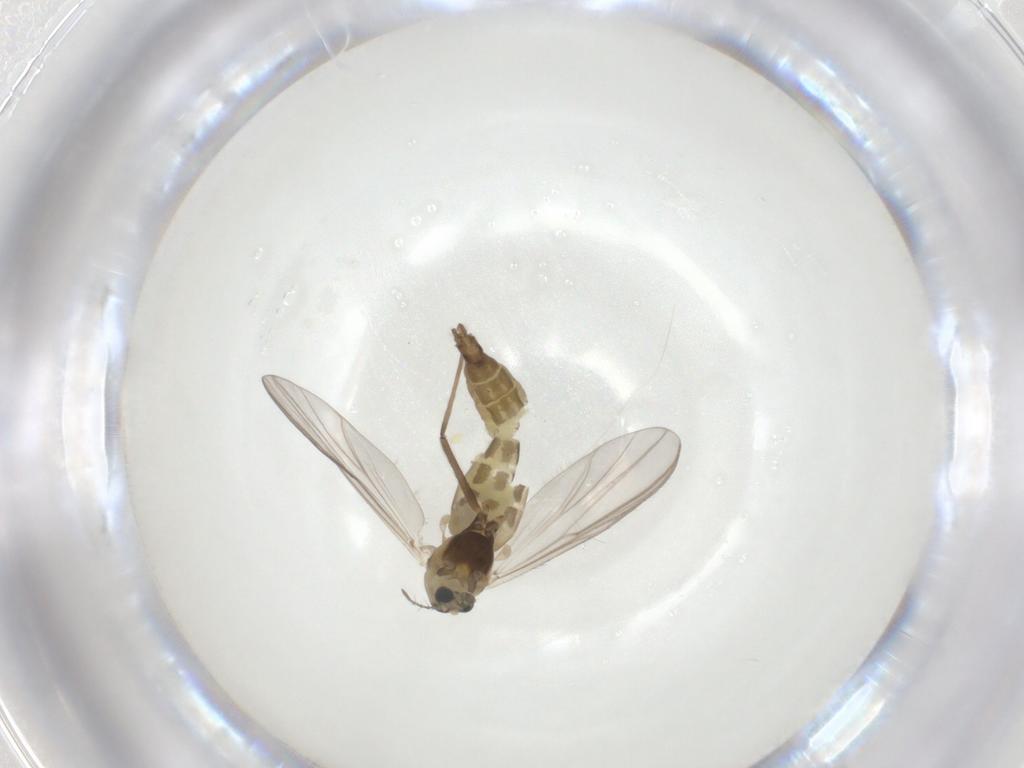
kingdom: Animalia
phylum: Arthropoda
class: Insecta
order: Diptera
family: Chironomidae
